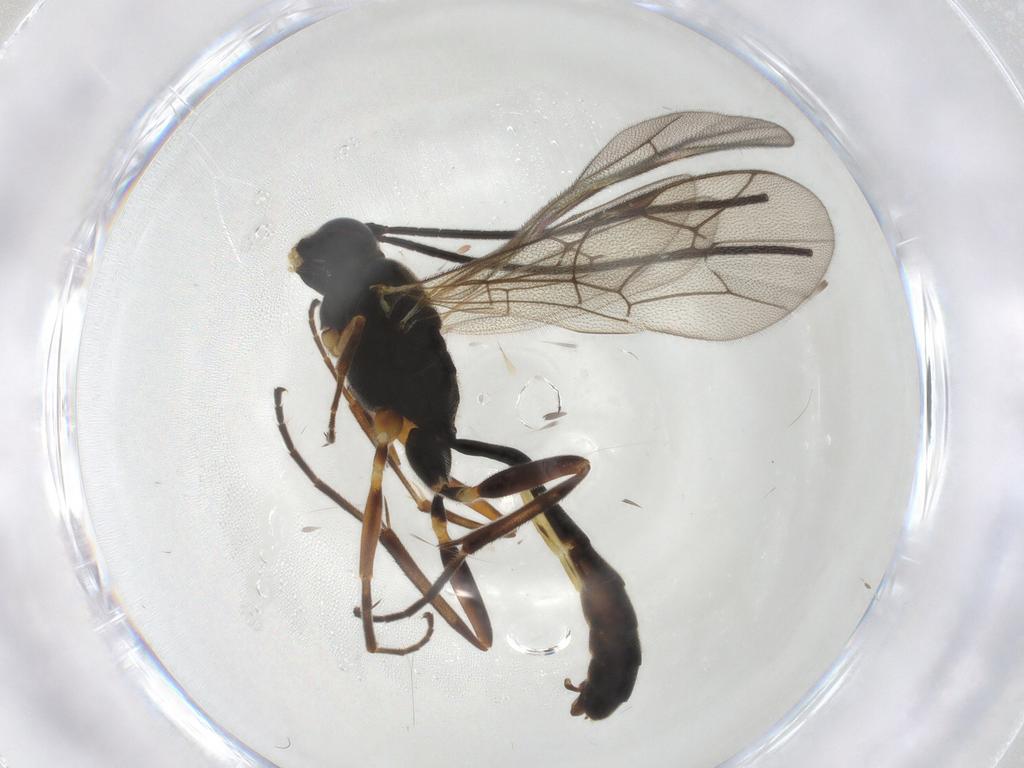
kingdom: Animalia
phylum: Arthropoda
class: Insecta
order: Hymenoptera
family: Ichneumonidae
